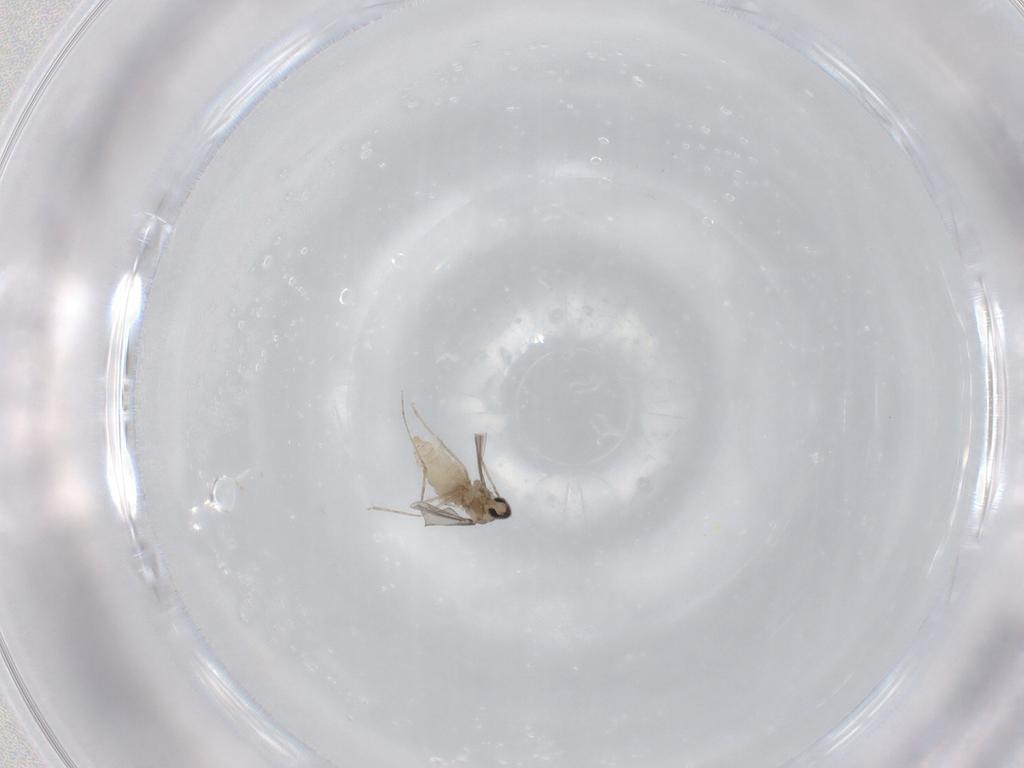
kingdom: Animalia
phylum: Arthropoda
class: Insecta
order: Diptera
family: Cecidomyiidae
